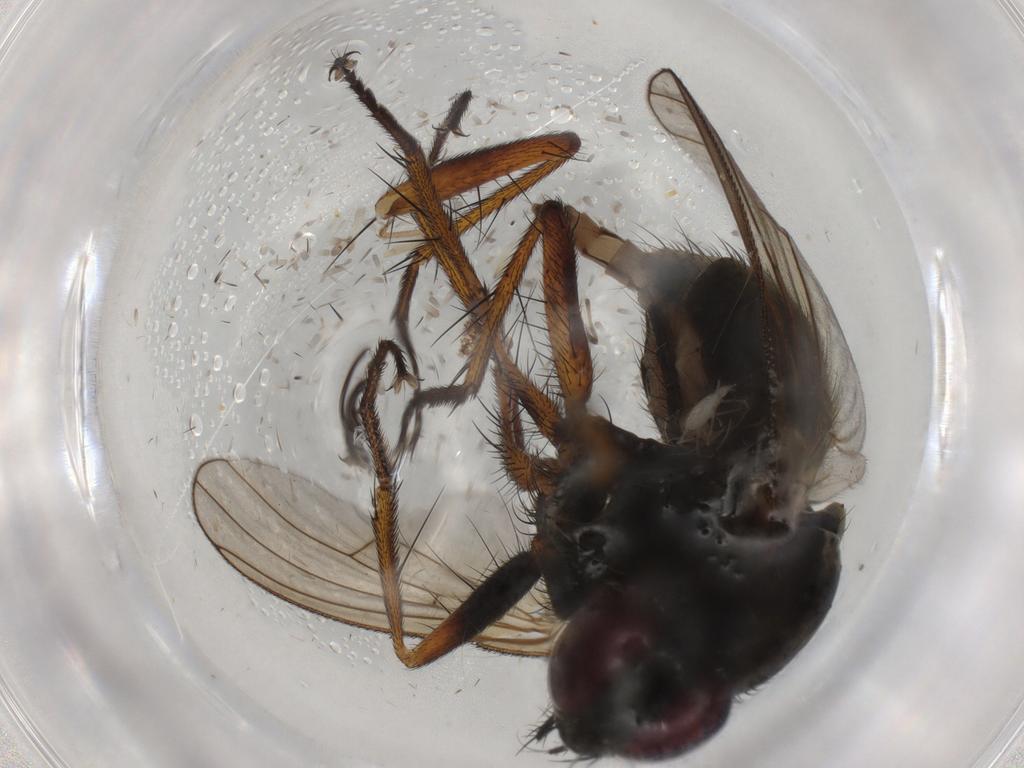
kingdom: Animalia
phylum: Arthropoda
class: Insecta
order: Diptera
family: Muscidae
